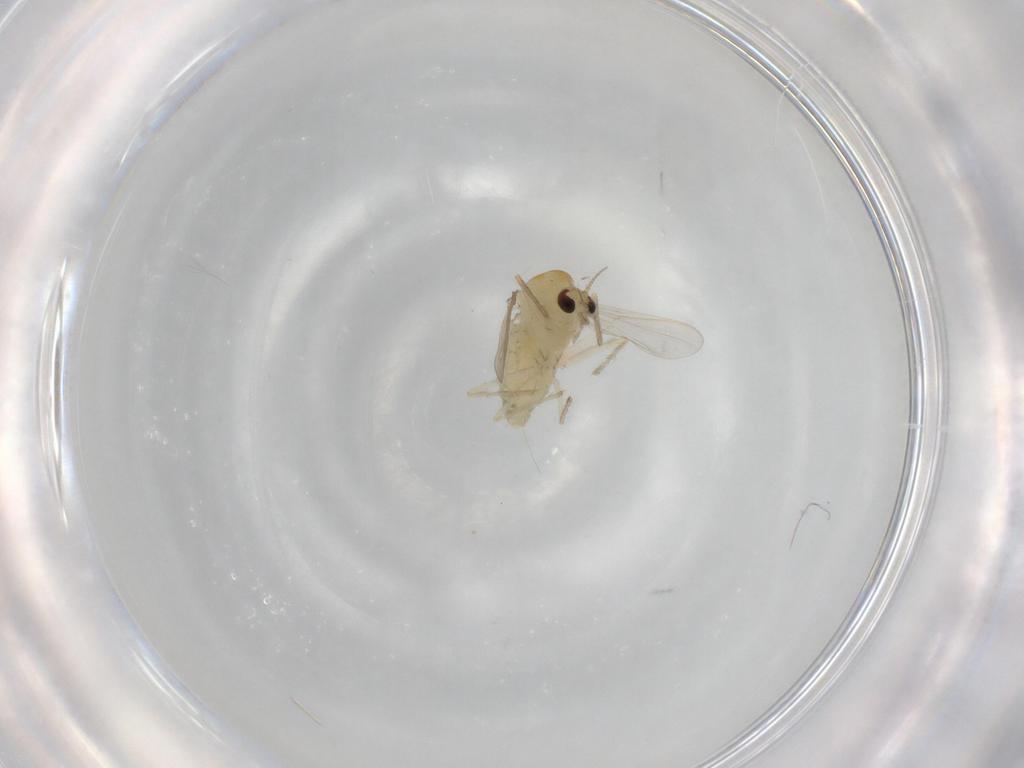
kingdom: Animalia
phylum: Arthropoda
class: Insecta
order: Diptera
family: Chironomidae
